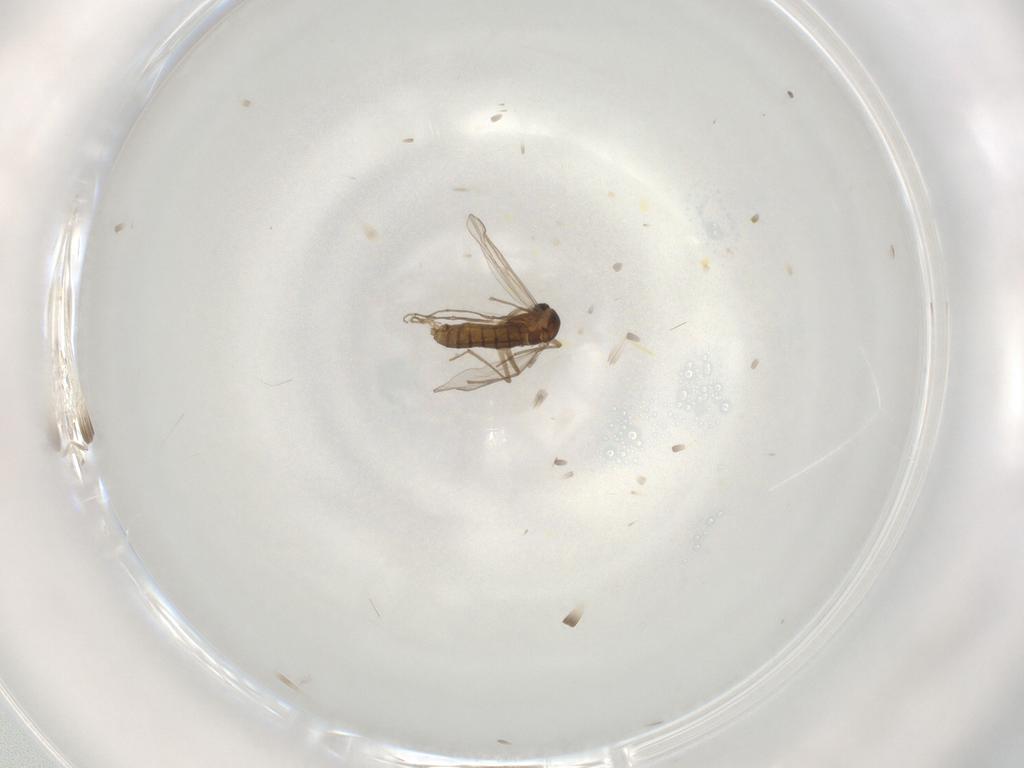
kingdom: Animalia
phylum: Arthropoda
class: Insecta
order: Diptera
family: Mycetophilidae
